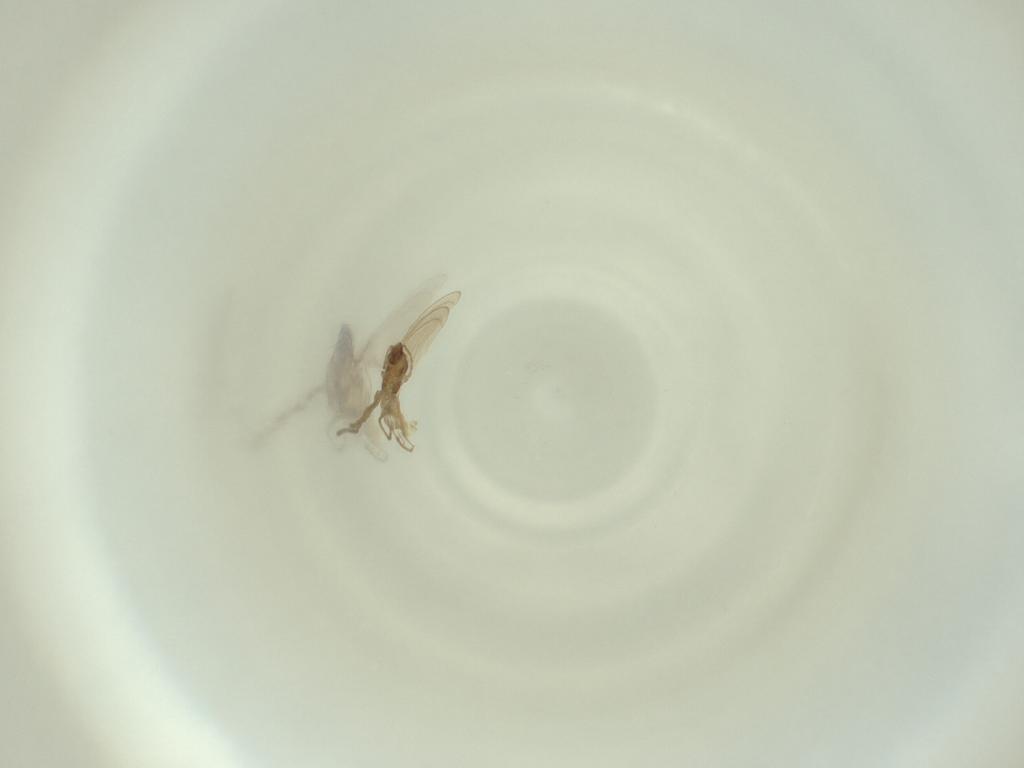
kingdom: Animalia
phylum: Arthropoda
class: Insecta
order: Diptera
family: Cecidomyiidae
